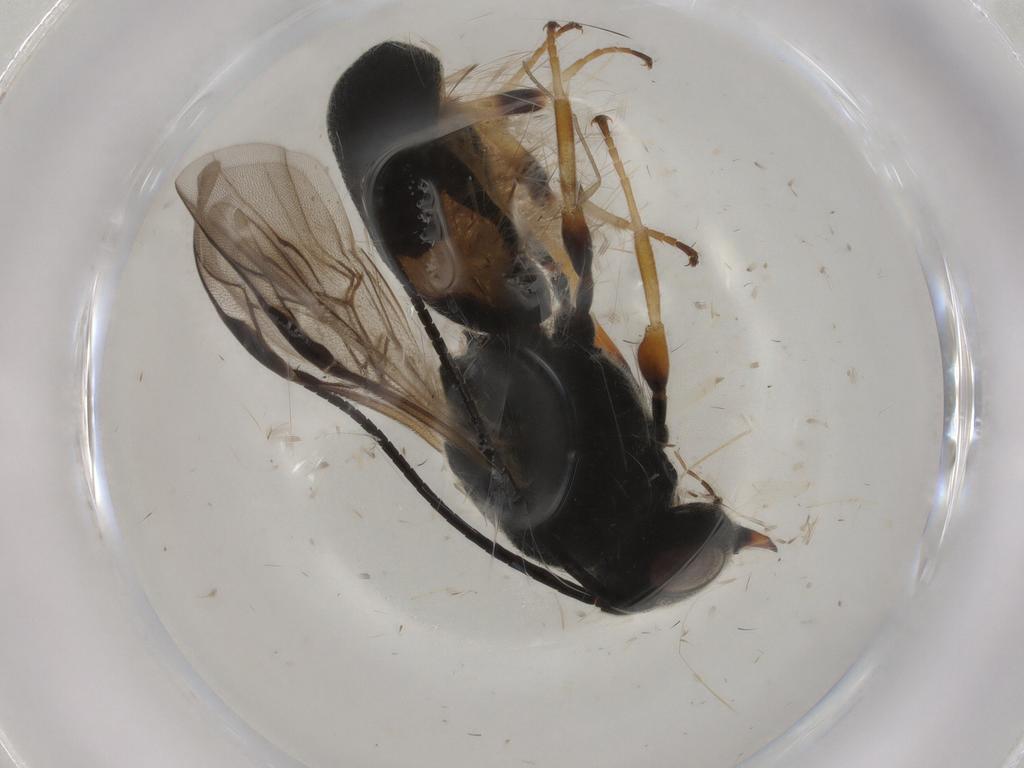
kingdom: Animalia
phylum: Arthropoda
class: Insecta
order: Hymenoptera
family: Braconidae
